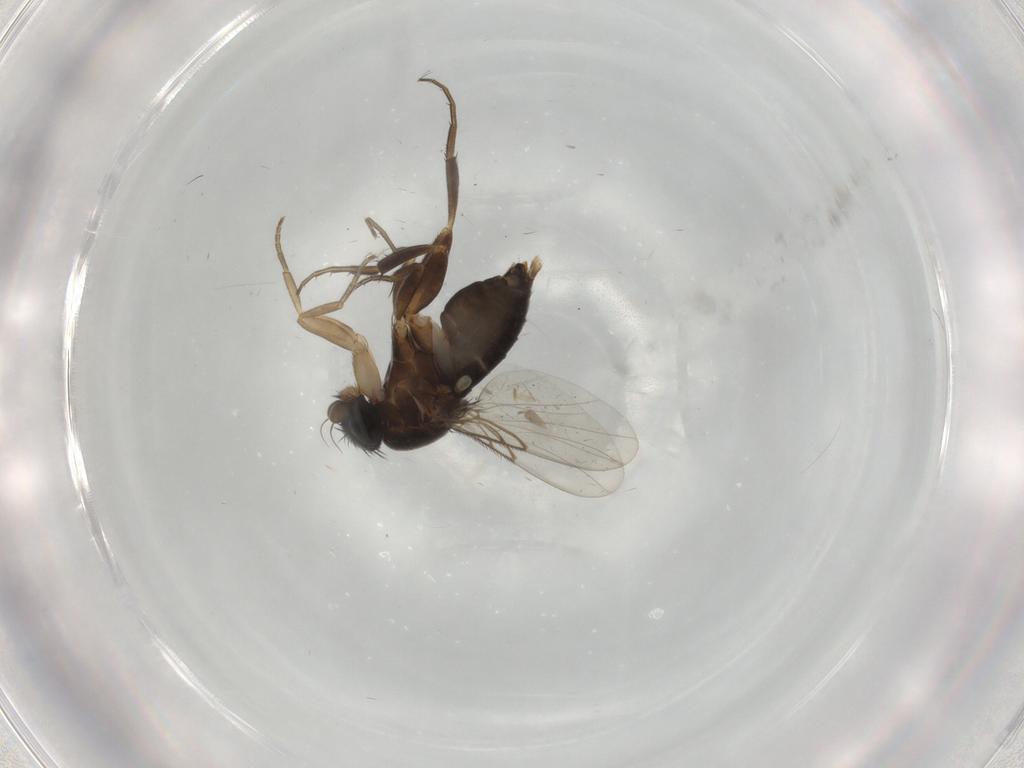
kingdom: Animalia
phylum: Arthropoda
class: Insecta
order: Diptera
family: Phoridae
